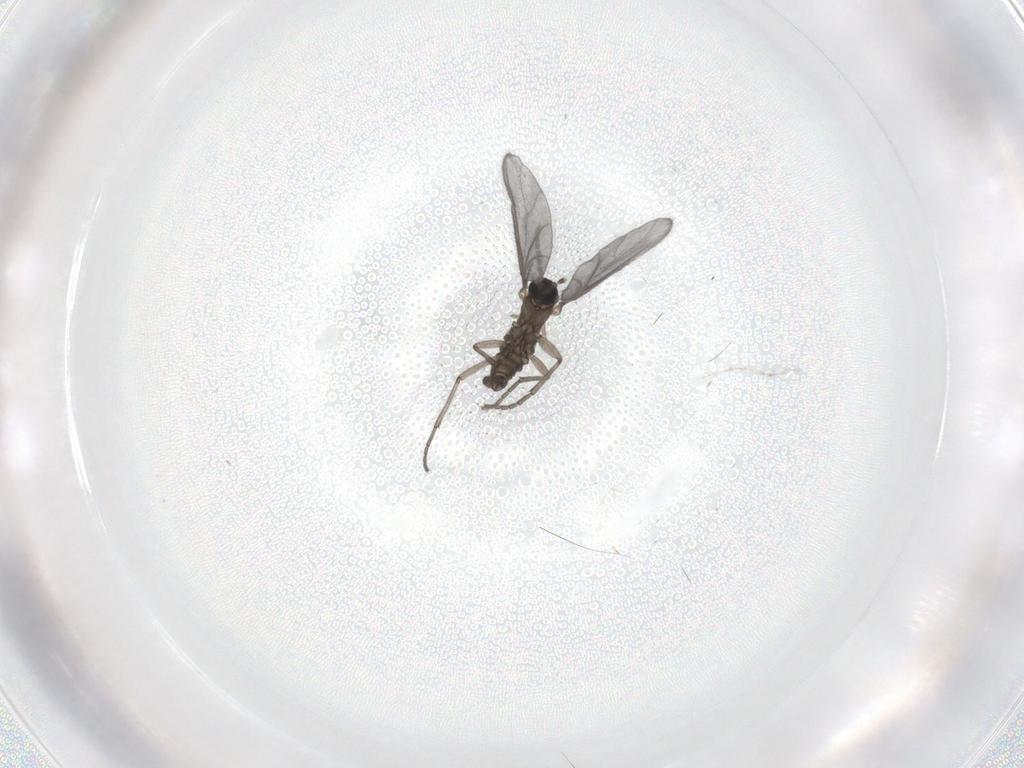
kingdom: Animalia
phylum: Arthropoda
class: Insecta
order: Diptera
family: Sciaridae
